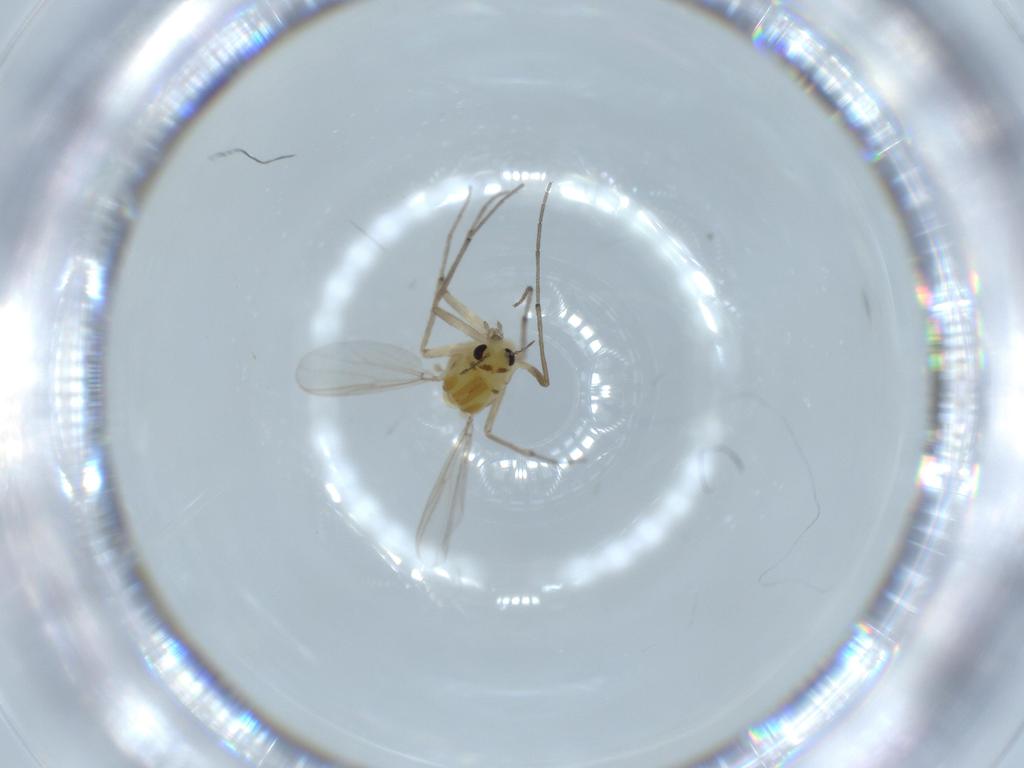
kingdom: Animalia
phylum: Arthropoda
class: Insecta
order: Diptera
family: Chironomidae
